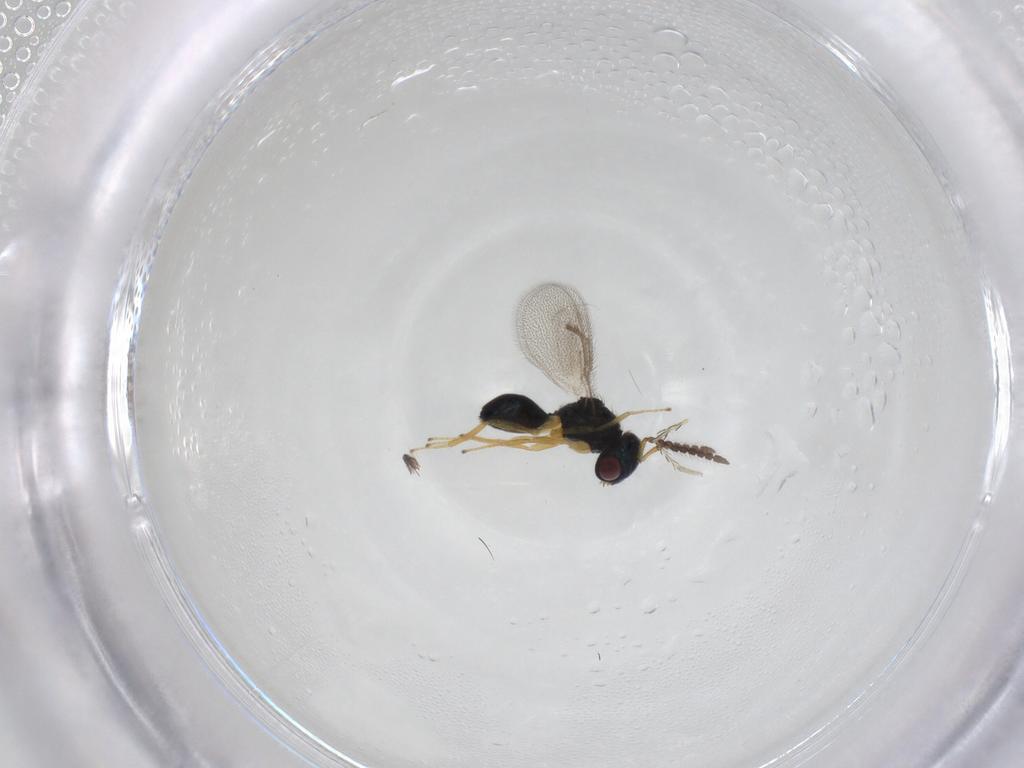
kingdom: Animalia
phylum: Arthropoda
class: Insecta
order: Hymenoptera
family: Pteromalidae
